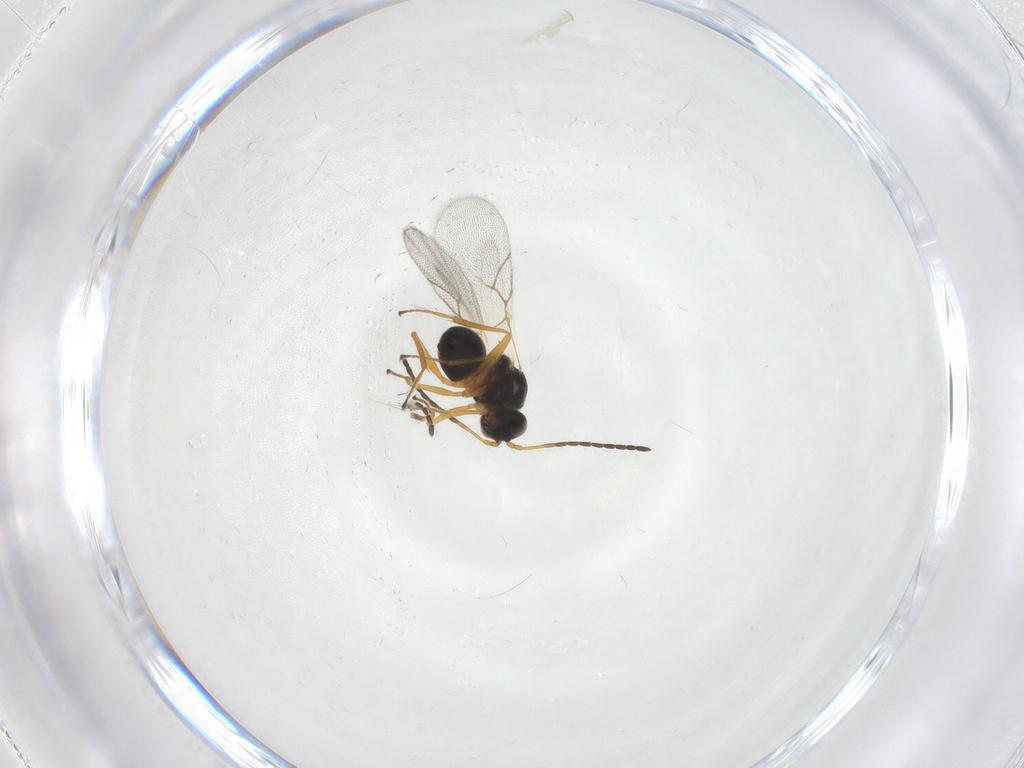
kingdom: Animalia
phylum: Arthropoda
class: Insecta
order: Hymenoptera
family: Figitidae
